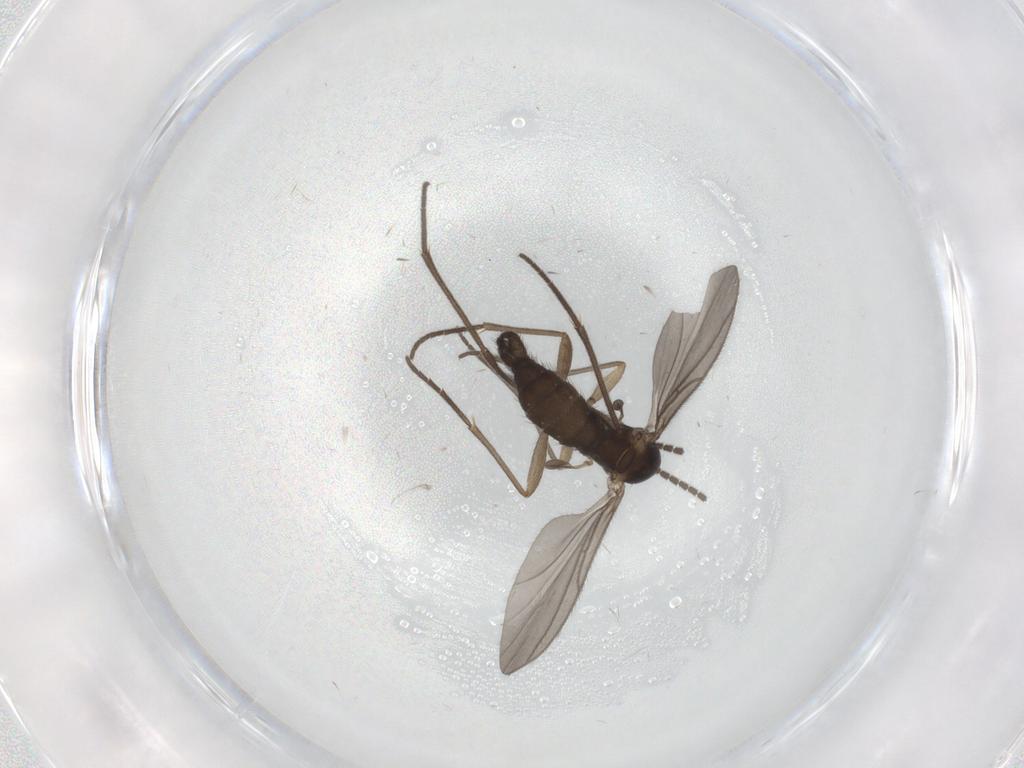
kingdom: Animalia
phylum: Arthropoda
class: Insecta
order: Diptera
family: Sciaridae
